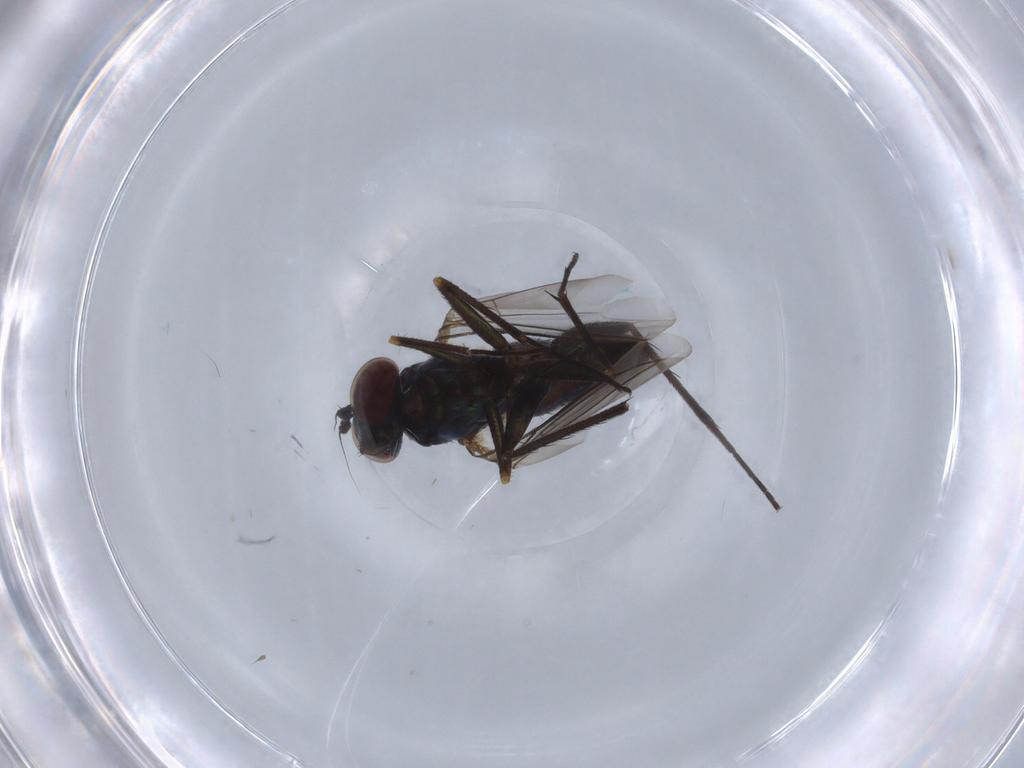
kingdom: Animalia
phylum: Arthropoda
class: Insecta
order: Diptera
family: Dolichopodidae
